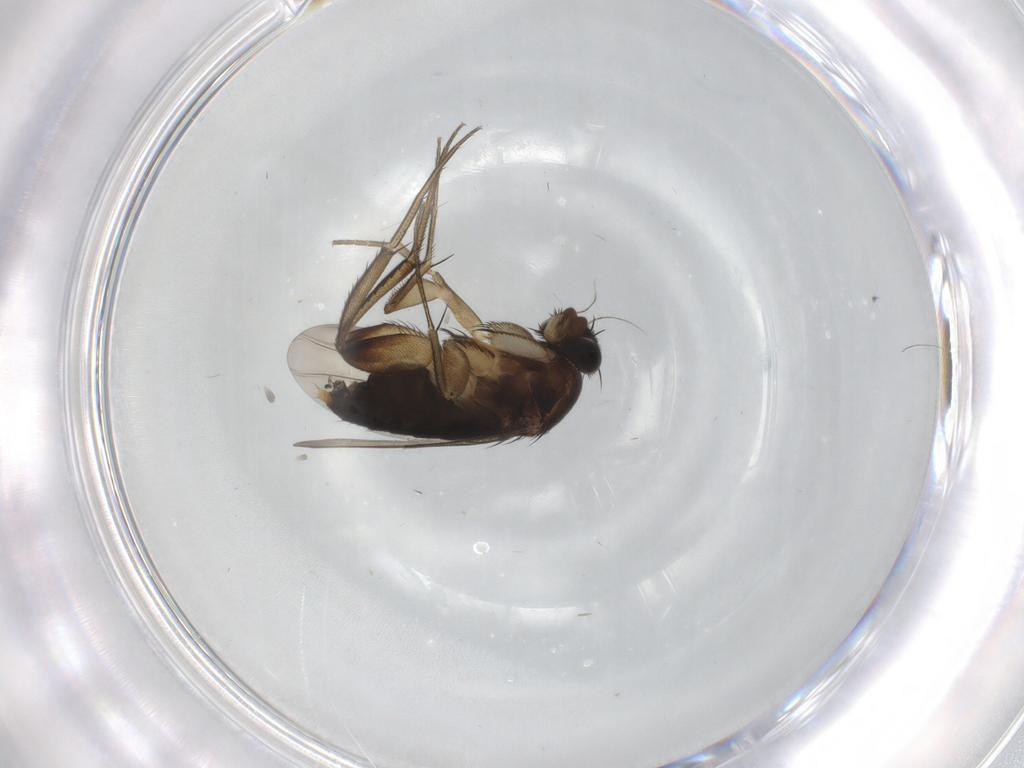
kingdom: Animalia
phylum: Arthropoda
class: Insecta
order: Diptera
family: Phoridae
